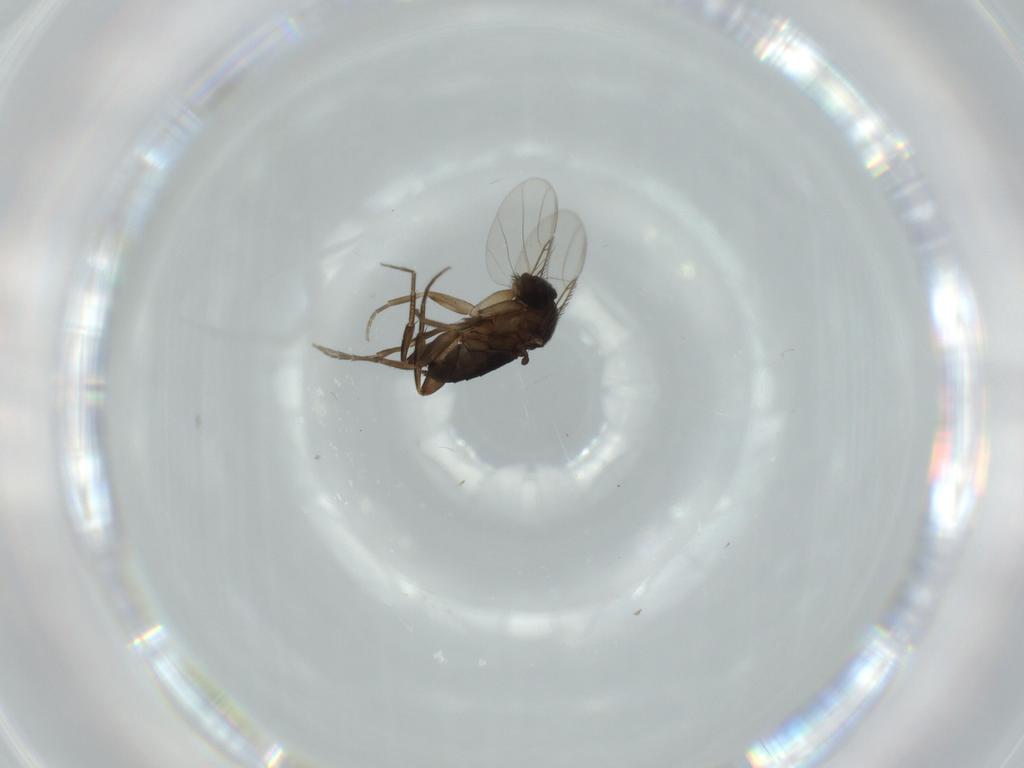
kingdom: Animalia
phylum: Arthropoda
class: Insecta
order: Diptera
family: Phoridae
